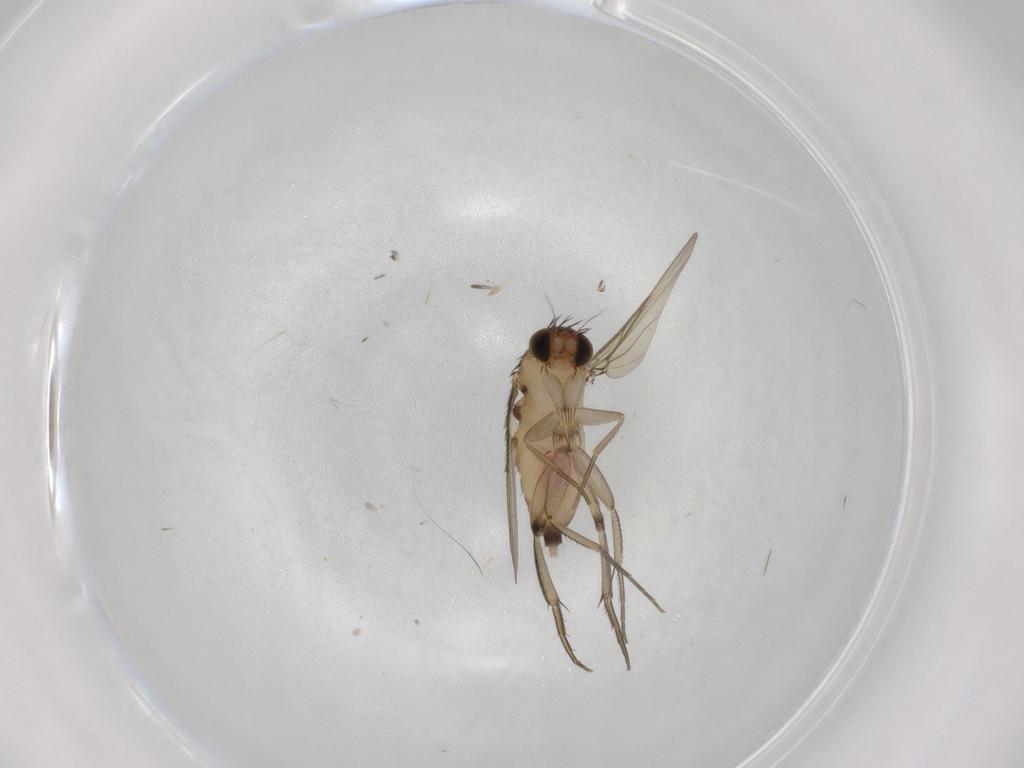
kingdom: Animalia
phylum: Arthropoda
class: Insecta
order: Diptera
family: Phoridae
